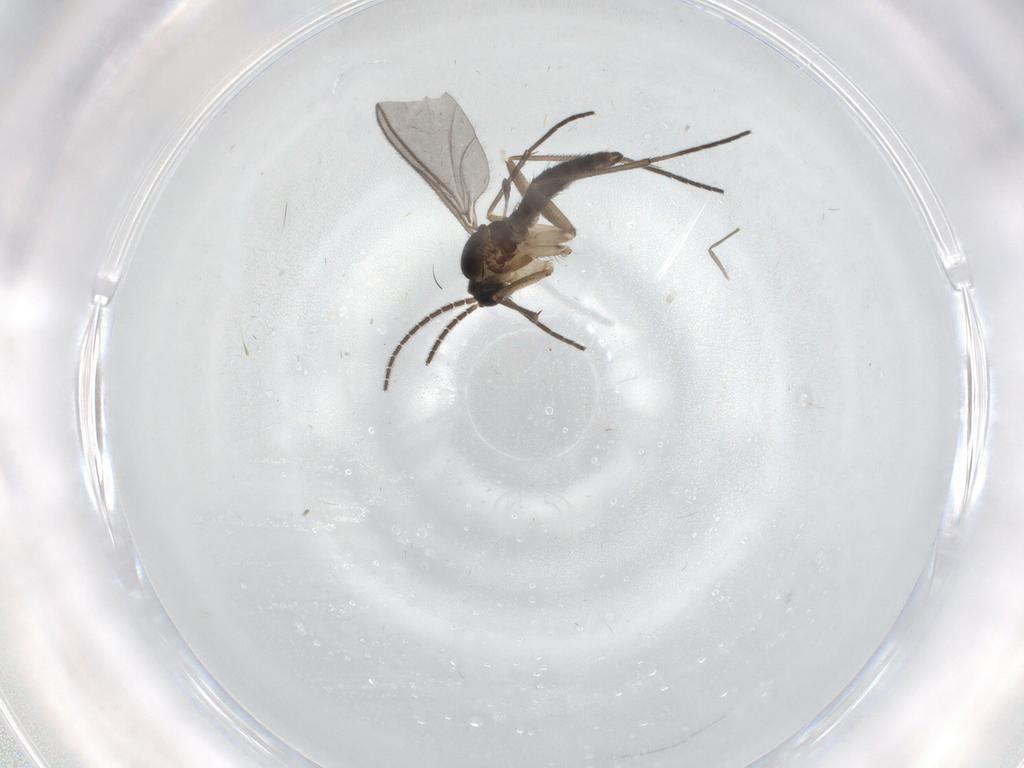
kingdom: Animalia
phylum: Arthropoda
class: Insecta
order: Diptera
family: Sciaridae
